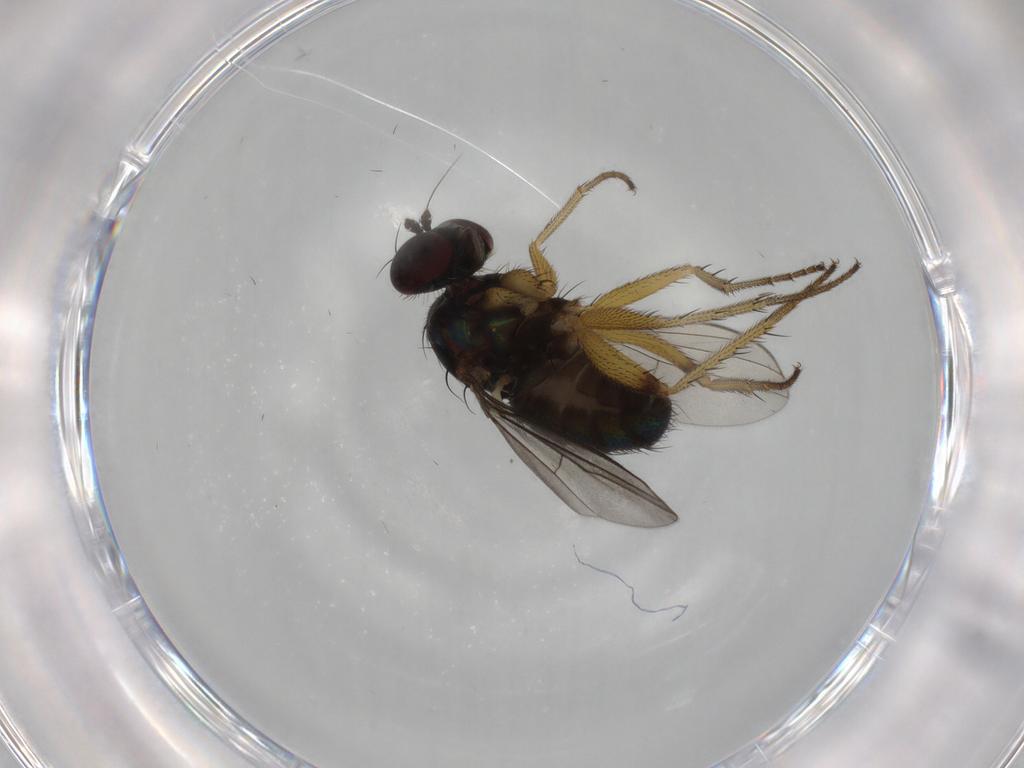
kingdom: Animalia
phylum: Arthropoda
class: Insecta
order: Diptera
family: Dolichopodidae
